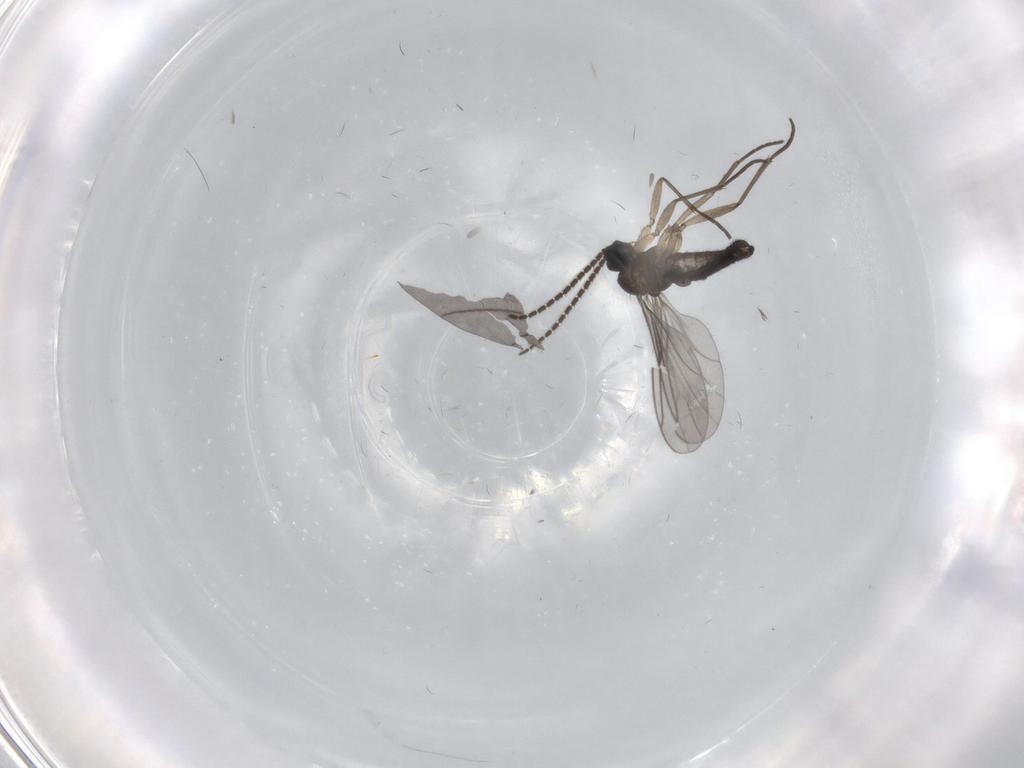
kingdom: Animalia
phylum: Arthropoda
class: Insecta
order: Diptera
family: Sciaridae
